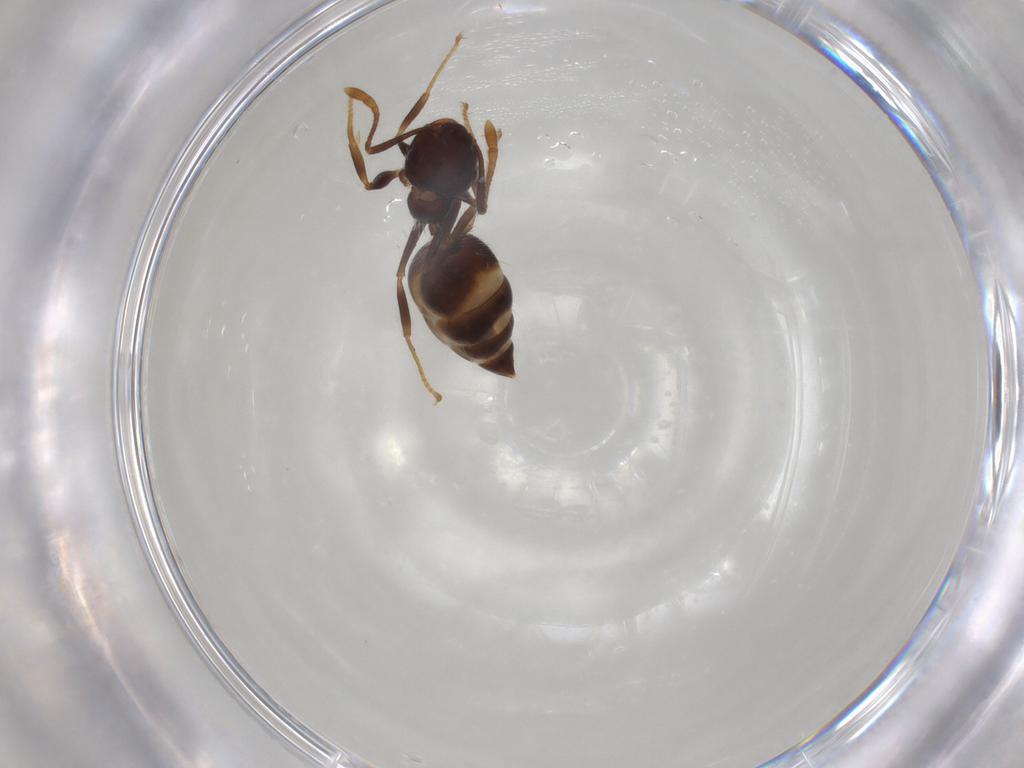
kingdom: Animalia
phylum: Arthropoda
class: Insecta
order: Hymenoptera
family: Formicidae
